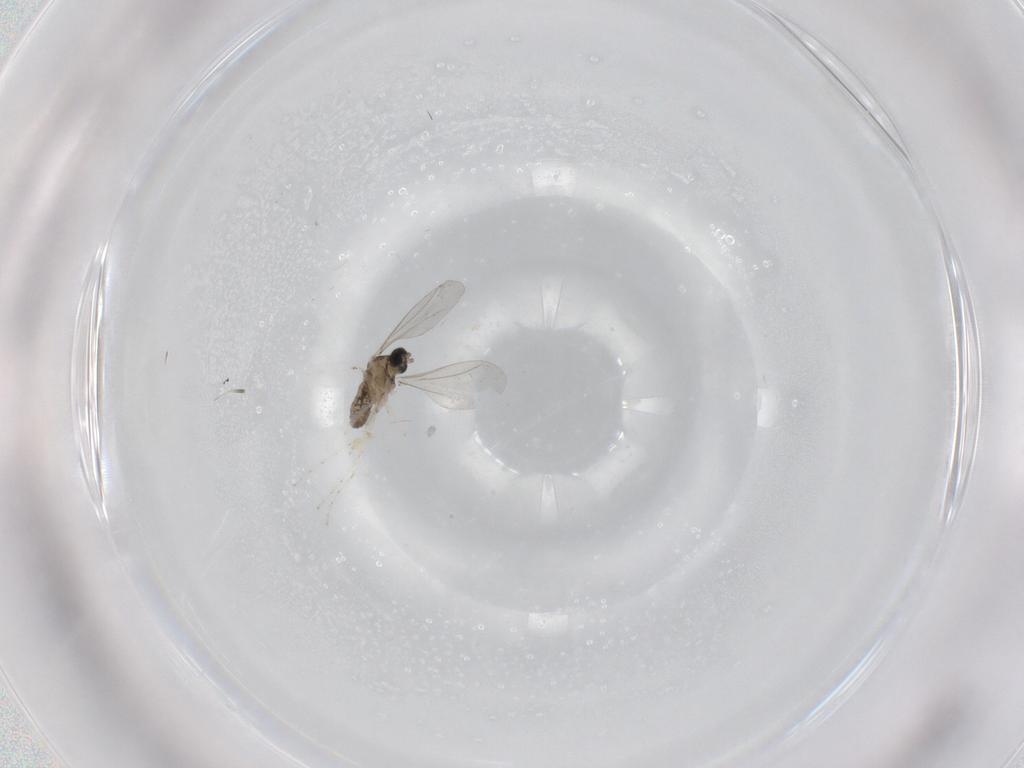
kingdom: Animalia
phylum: Arthropoda
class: Insecta
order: Diptera
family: Cecidomyiidae
